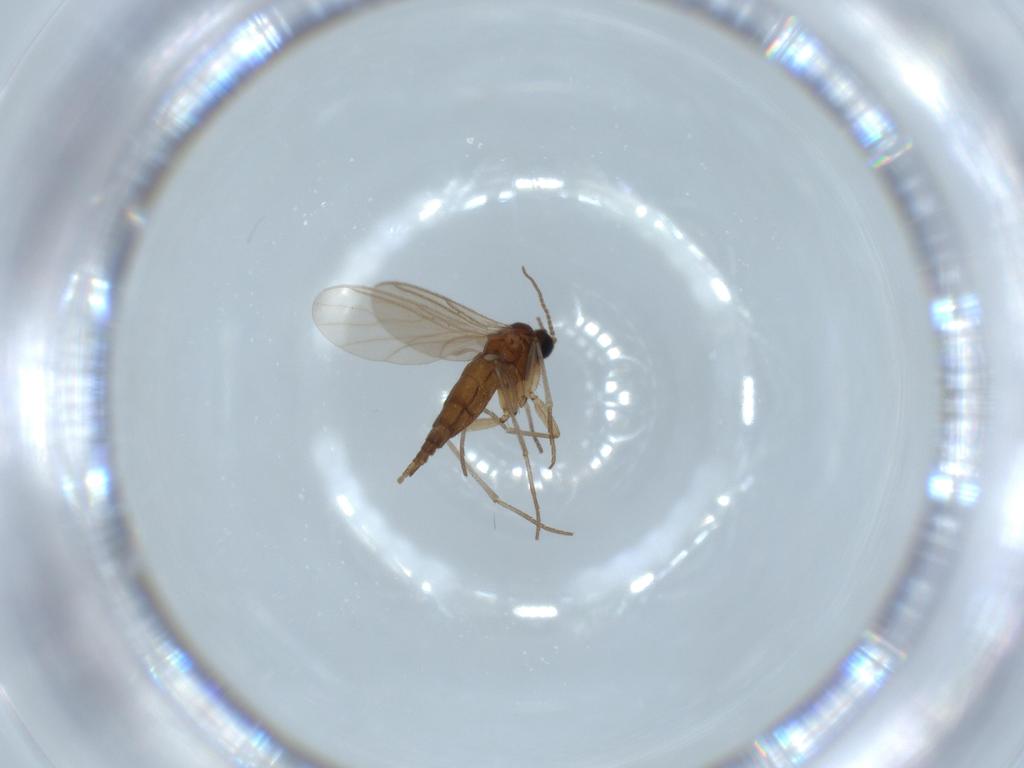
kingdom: Animalia
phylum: Arthropoda
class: Insecta
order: Diptera
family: Sciaridae
